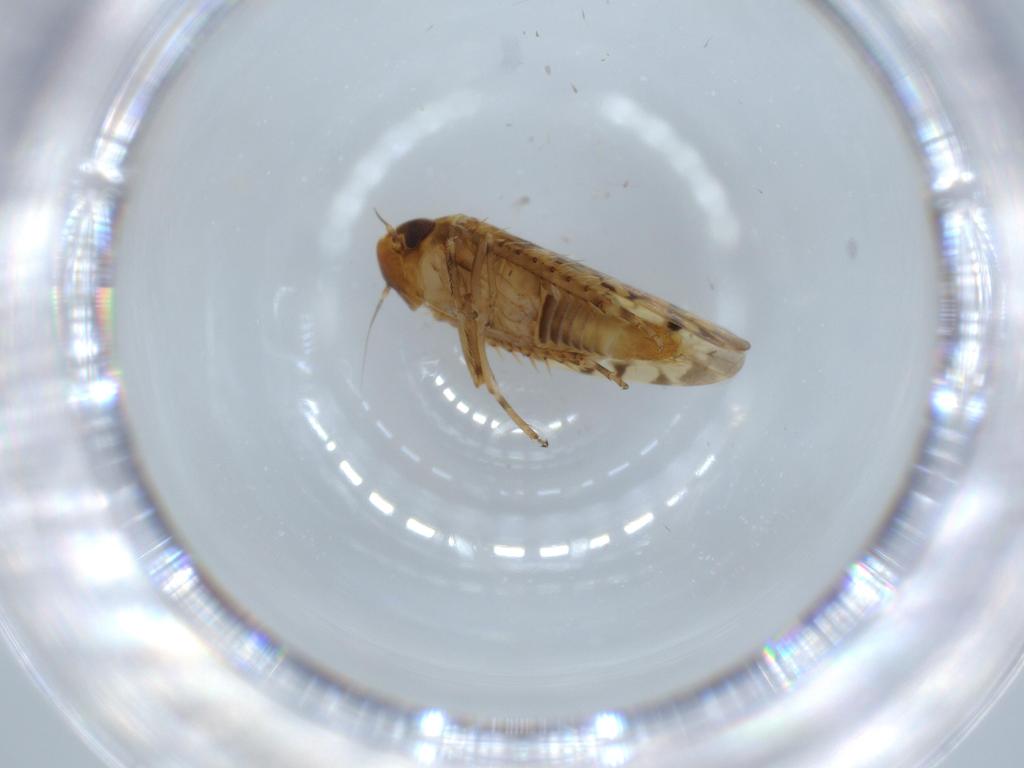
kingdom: Animalia
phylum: Arthropoda
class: Insecta
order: Hemiptera
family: Cicadellidae
